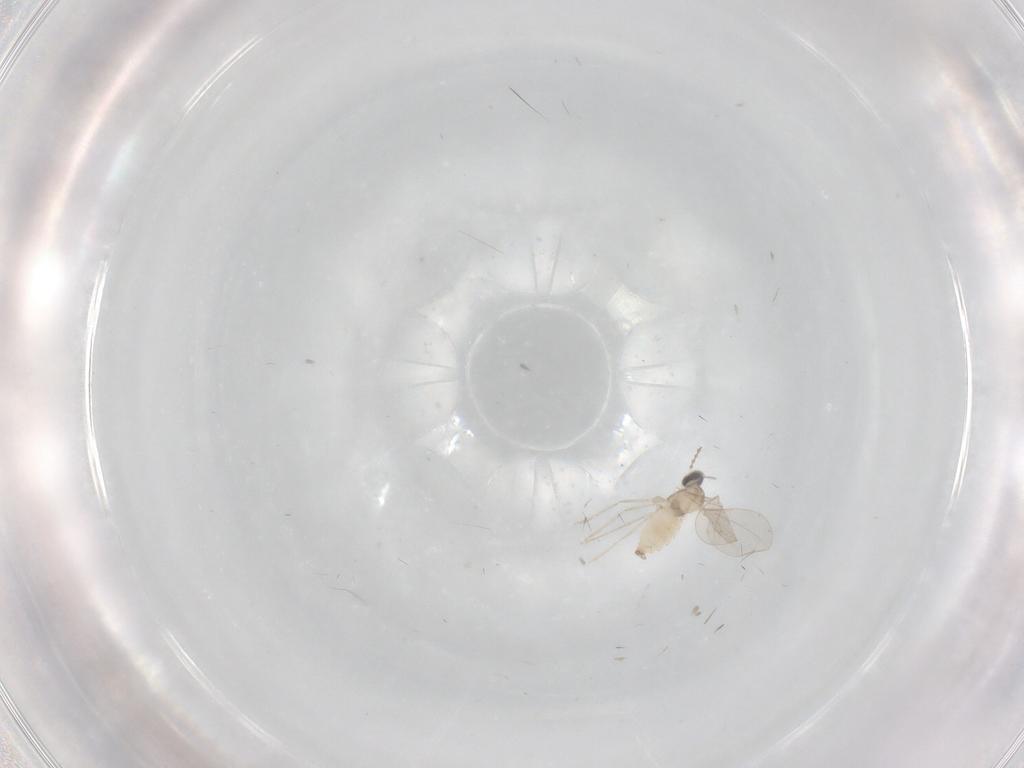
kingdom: Animalia
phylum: Arthropoda
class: Insecta
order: Diptera
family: Cecidomyiidae
